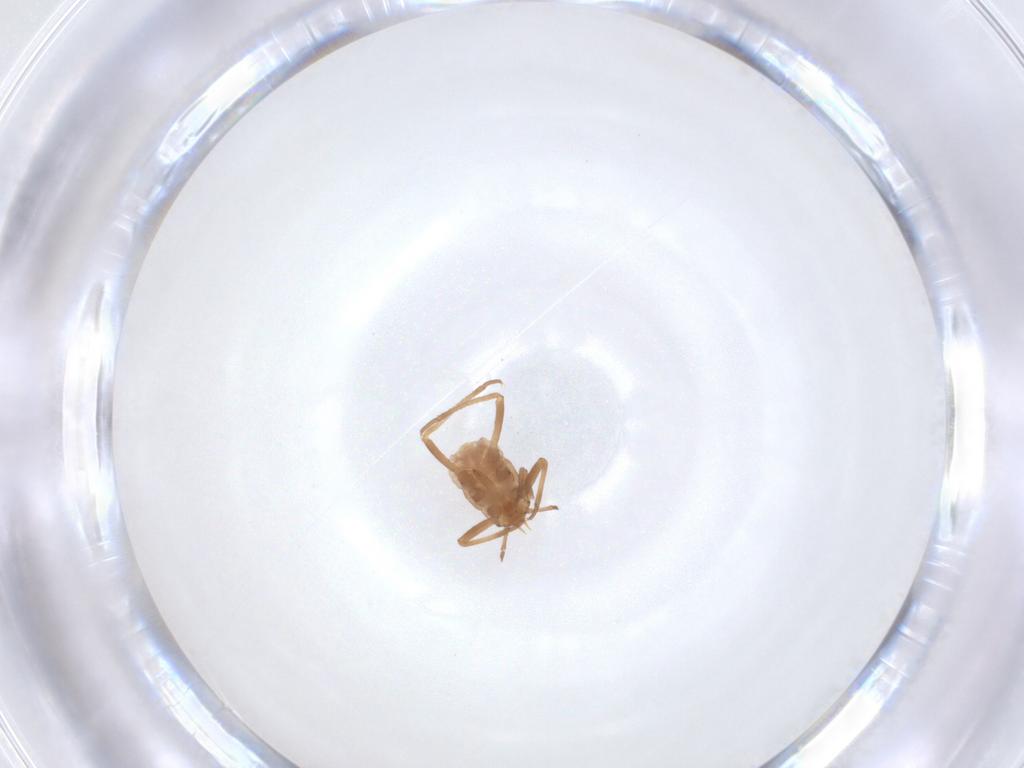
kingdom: Animalia
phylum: Arthropoda
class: Insecta
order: Hemiptera
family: Aphididae
